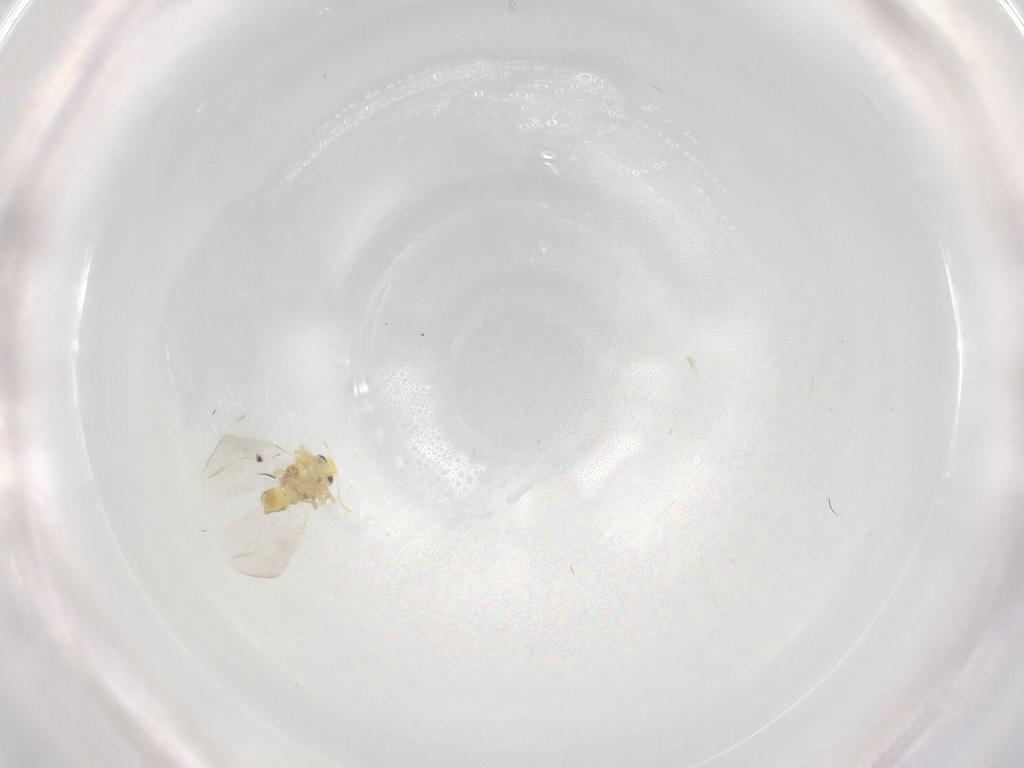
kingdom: Animalia
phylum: Arthropoda
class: Insecta
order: Hemiptera
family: Aleyrodidae
